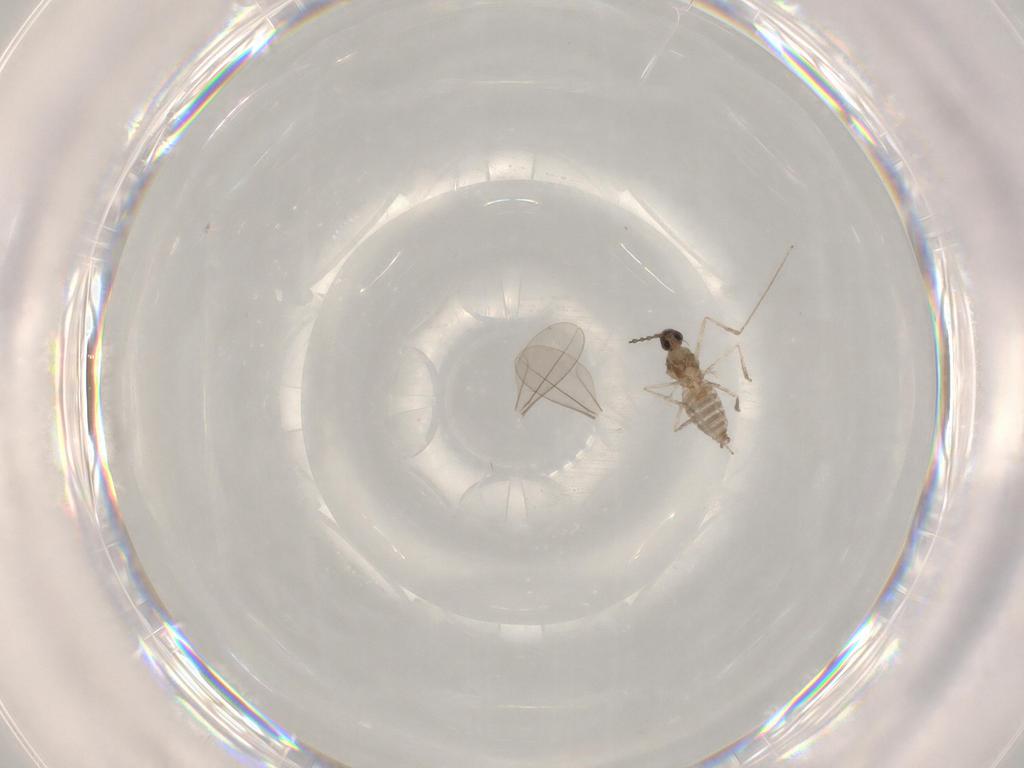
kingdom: Animalia
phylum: Arthropoda
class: Insecta
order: Diptera
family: Cecidomyiidae
